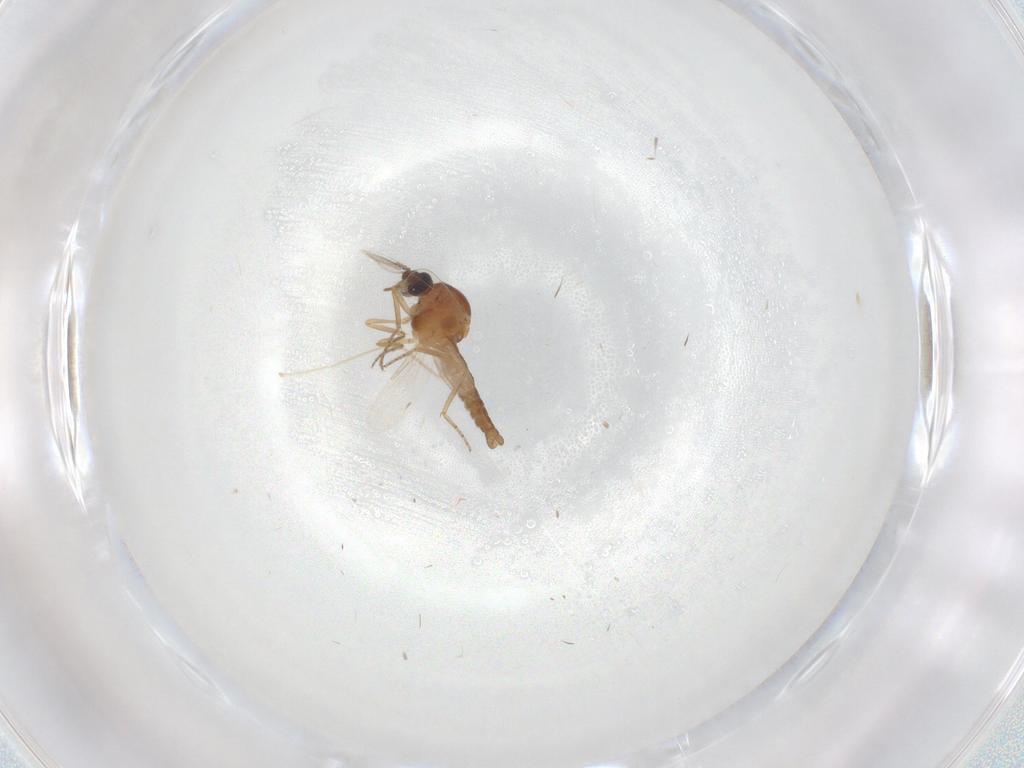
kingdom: Animalia
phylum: Arthropoda
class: Insecta
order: Diptera
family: Ceratopogonidae
